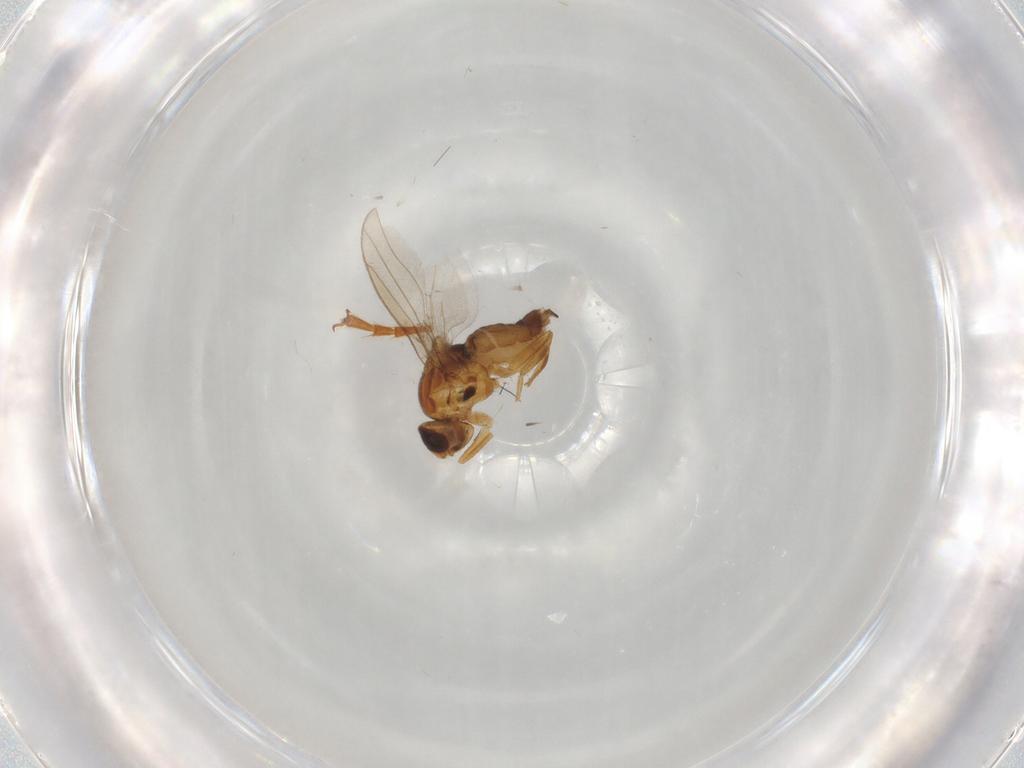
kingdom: Animalia
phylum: Arthropoda
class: Insecta
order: Diptera
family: Chloropidae
